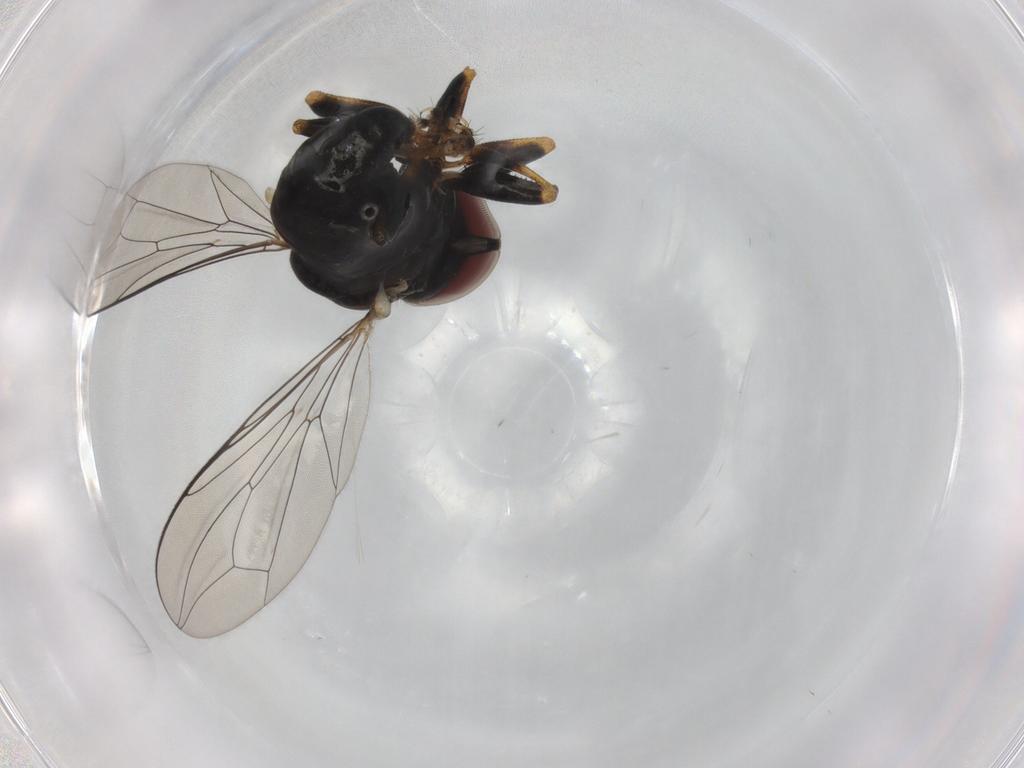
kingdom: Animalia
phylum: Arthropoda
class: Insecta
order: Diptera
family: Pipunculidae
